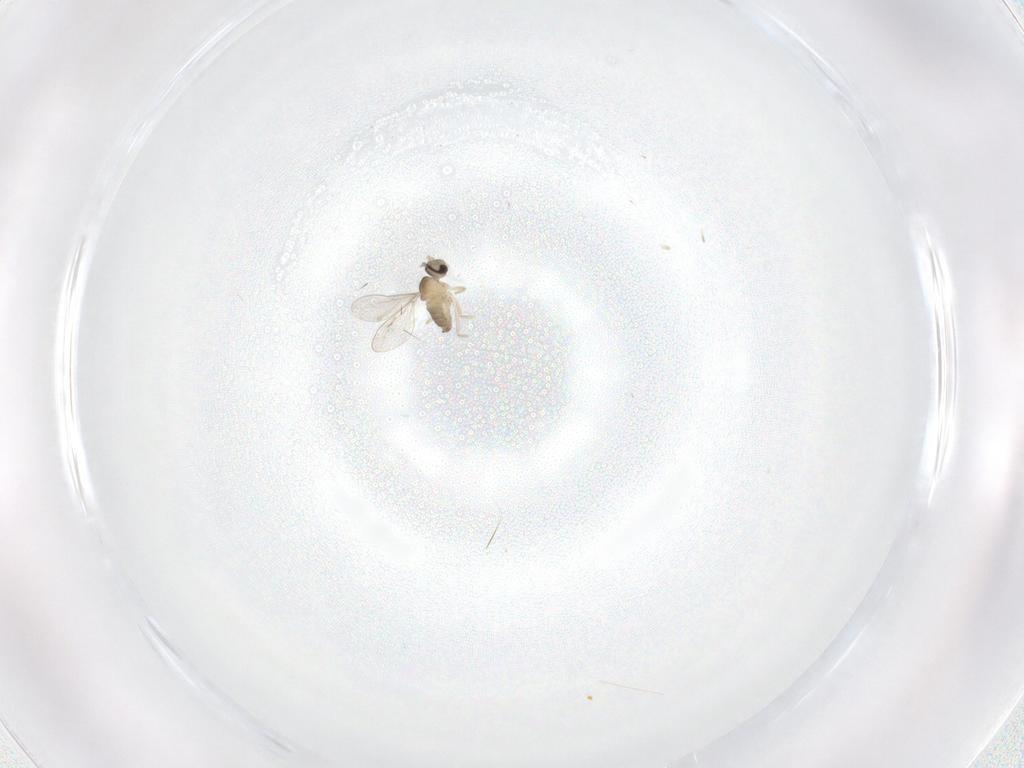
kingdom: Animalia
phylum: Arthropoda
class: Insecta
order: Diptera
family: Cecidomyiidae
